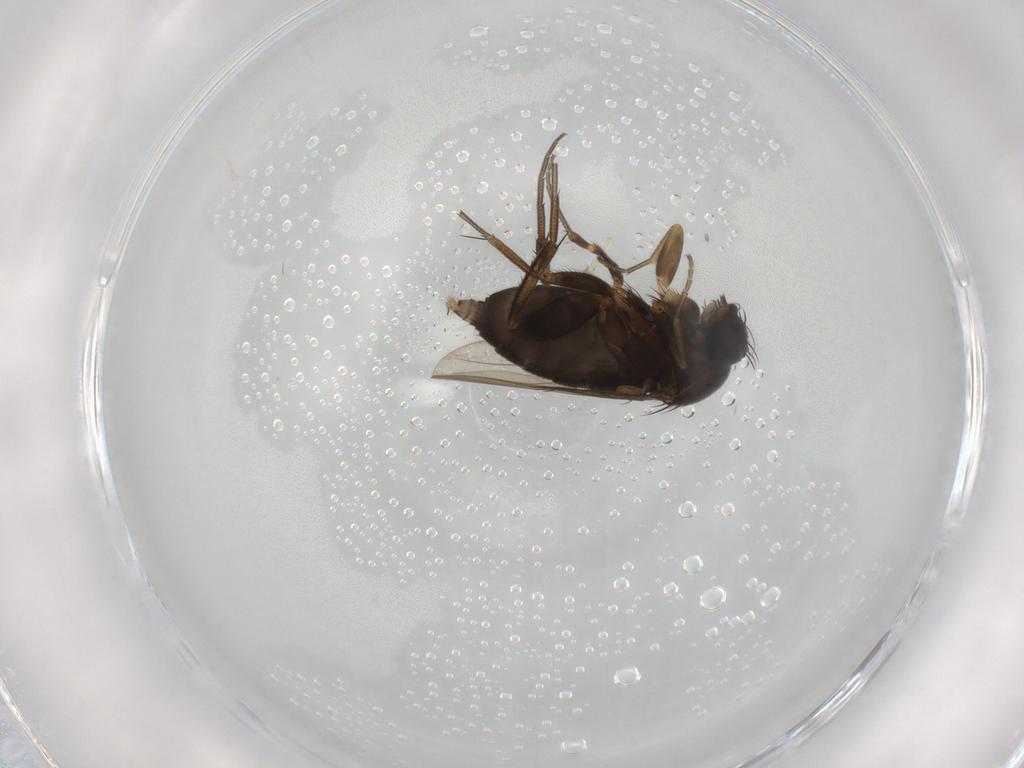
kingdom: Animalia
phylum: Arthropoda
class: Insecta
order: Diptera
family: Phoridae
